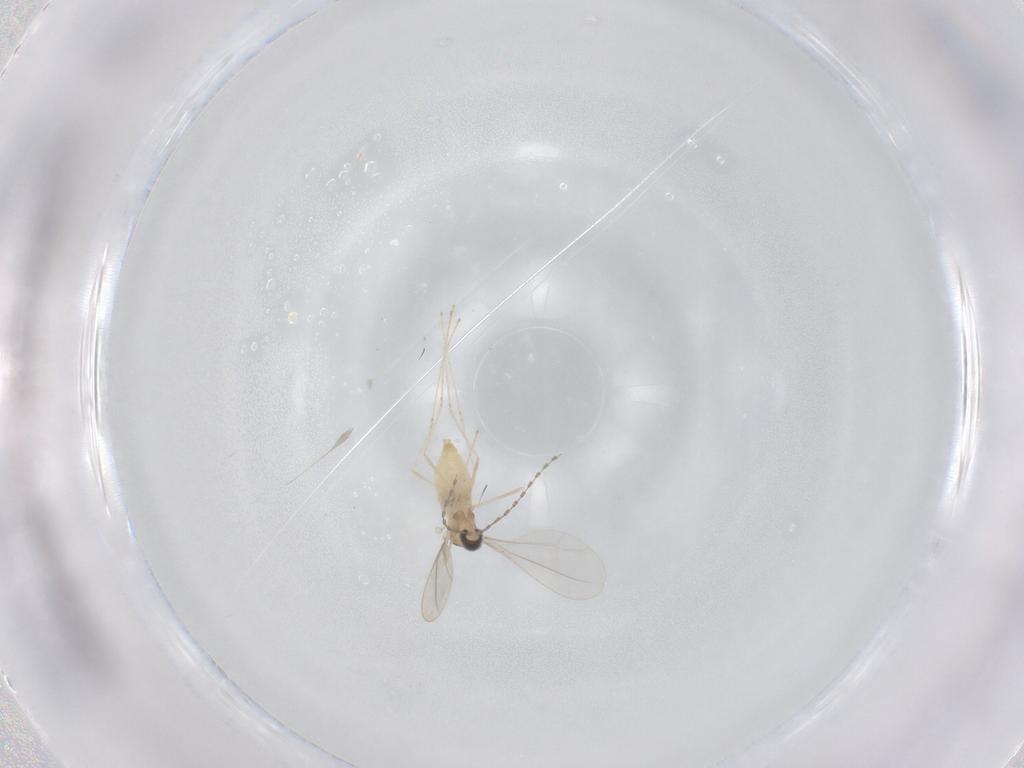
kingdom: Animalia
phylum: Arthropoda
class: Insecta
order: Diptera
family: Cecidomyiidae
